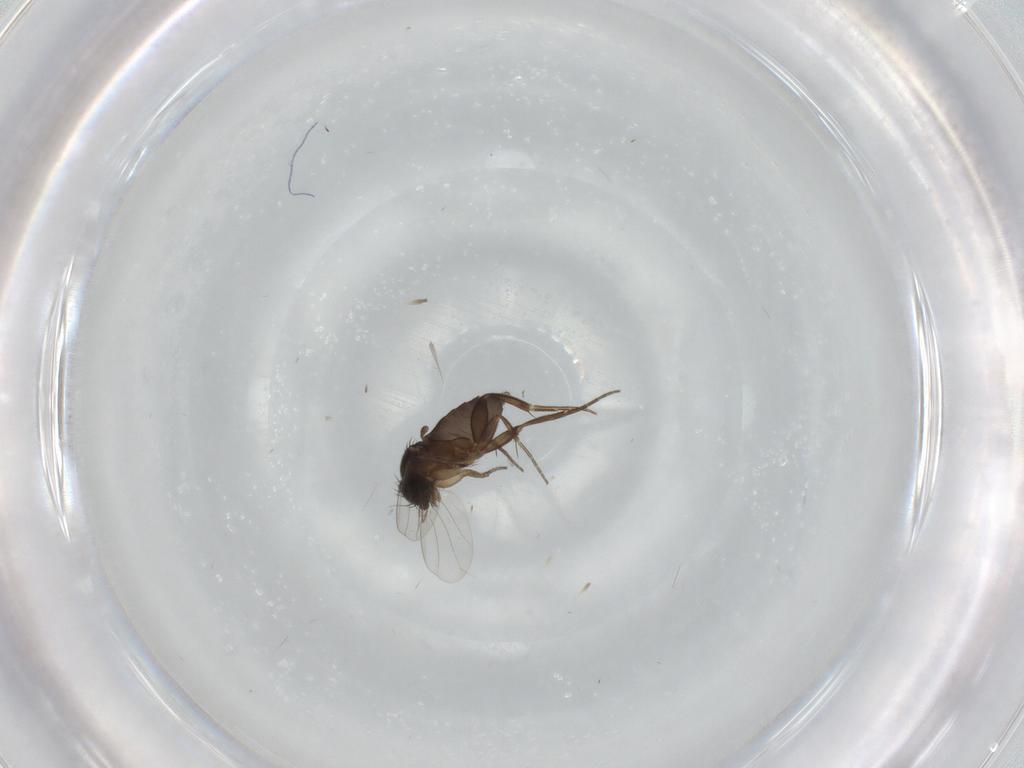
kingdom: Animalia
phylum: Arthropoda
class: Insecta
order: Diptera
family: Phoridae
